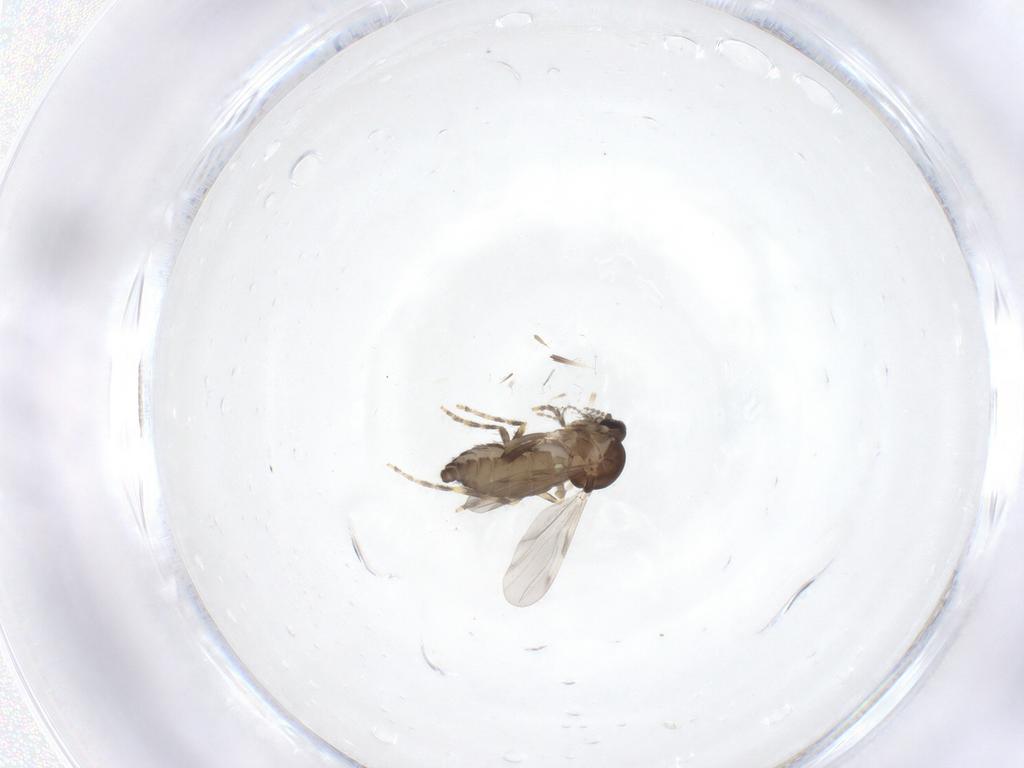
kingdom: Animalia
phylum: Arthropoda
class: Insecta
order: Diptera
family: Ceratopogonidae
